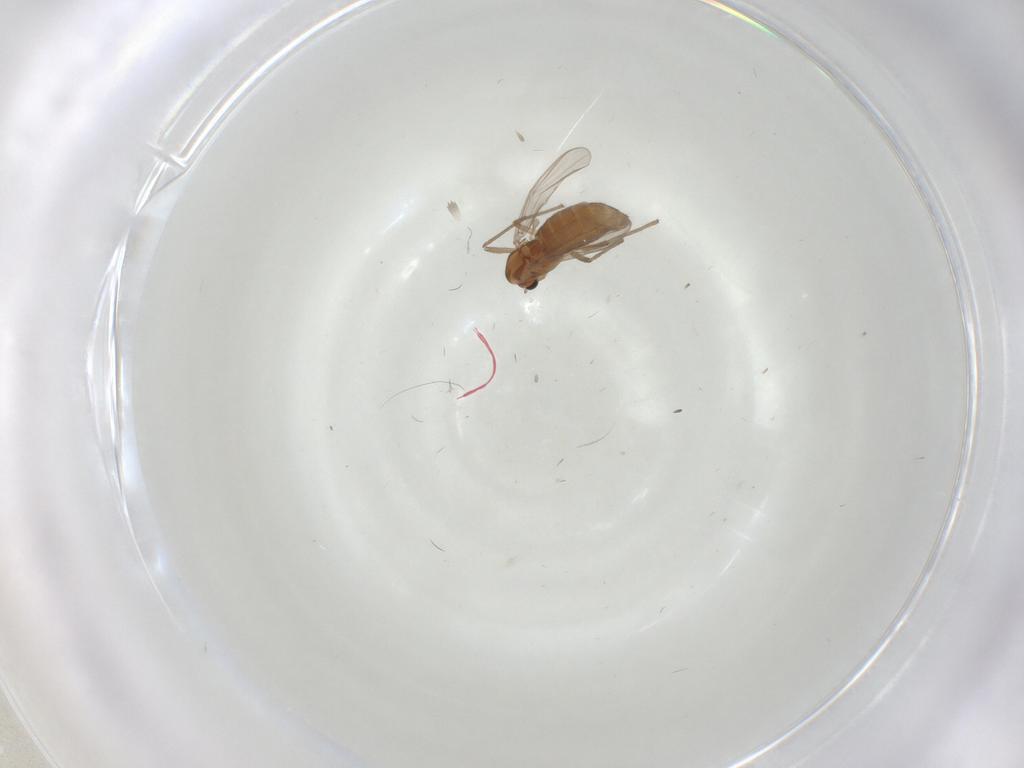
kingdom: Animalia
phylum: Arthropoda
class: Insecta
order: Diptera
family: Chironomidae
